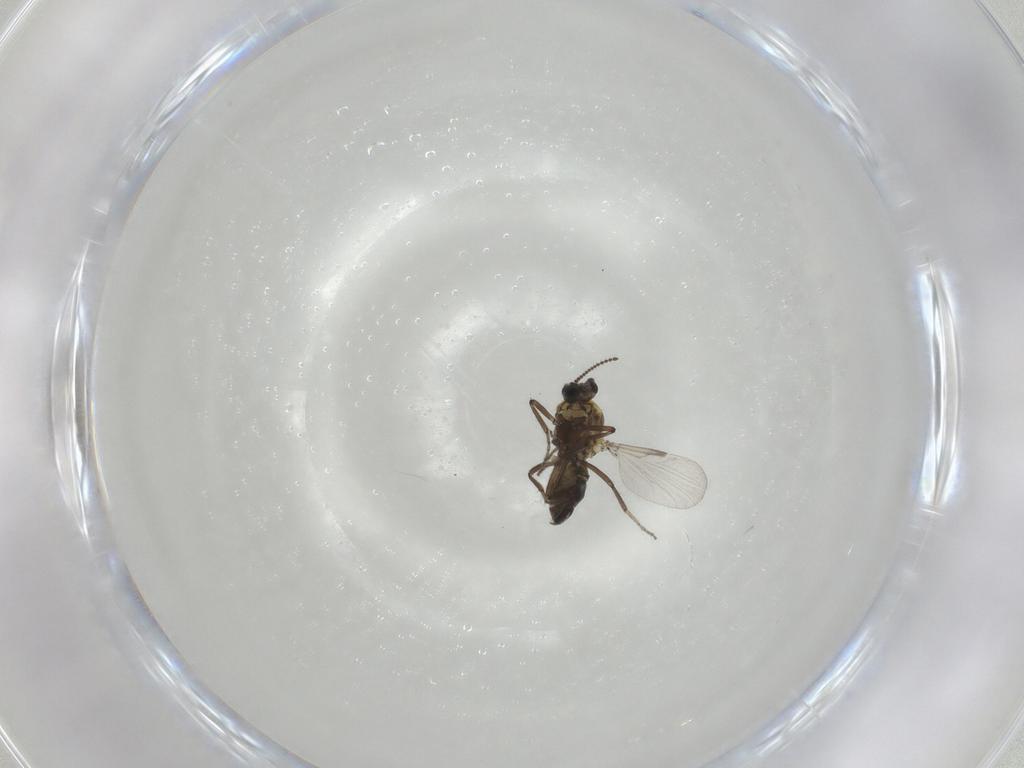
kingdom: Animalia
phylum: Arthropoda
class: Insecta
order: Diptera
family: Ceratopogonidae
